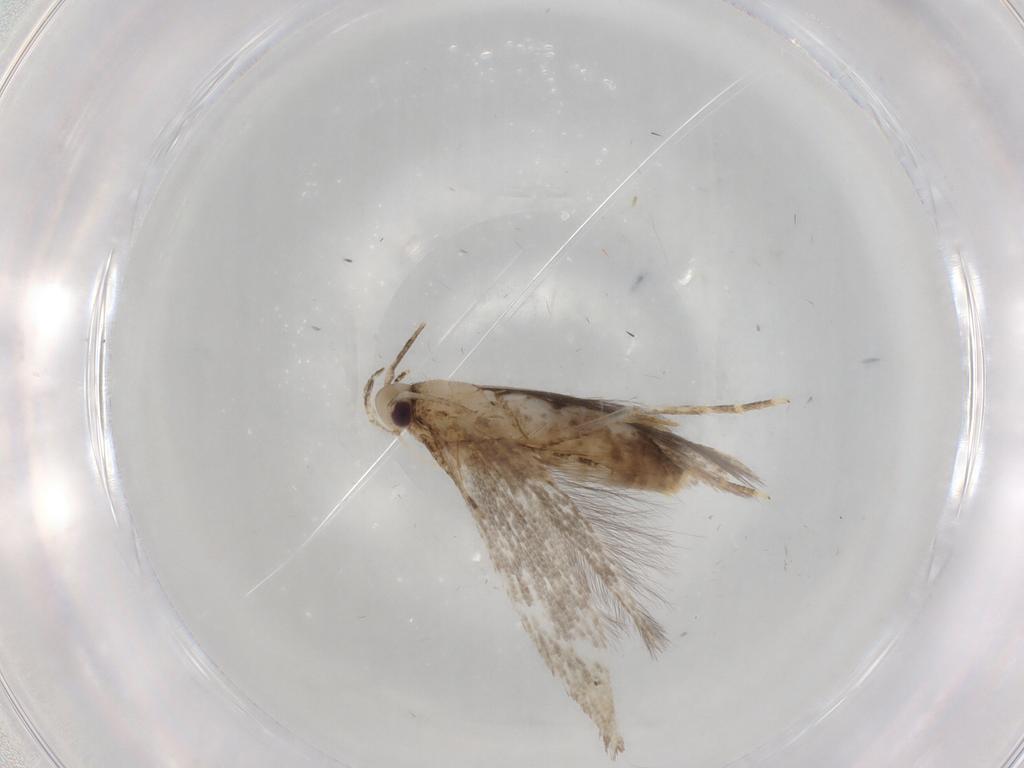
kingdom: Animalia
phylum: Arthropoda
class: Insecta
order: Lepidoptera
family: Cosmopterigidae
